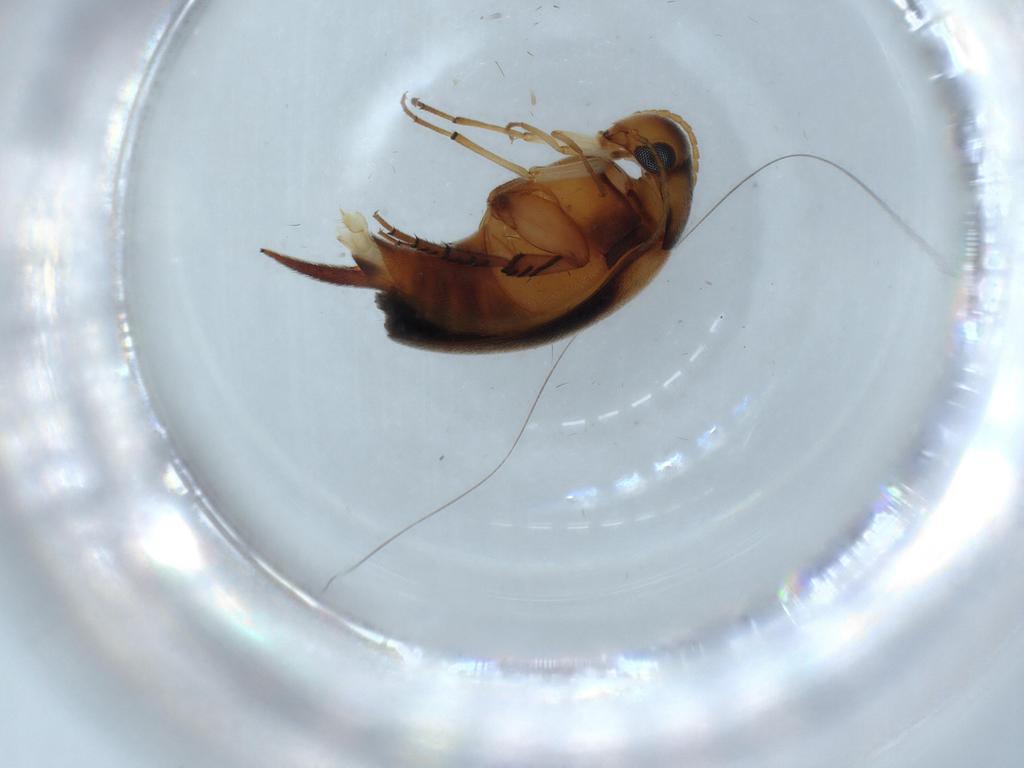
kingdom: Animalia
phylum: Arthropoda
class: Insecta
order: Coleoptera
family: Mordellidae
